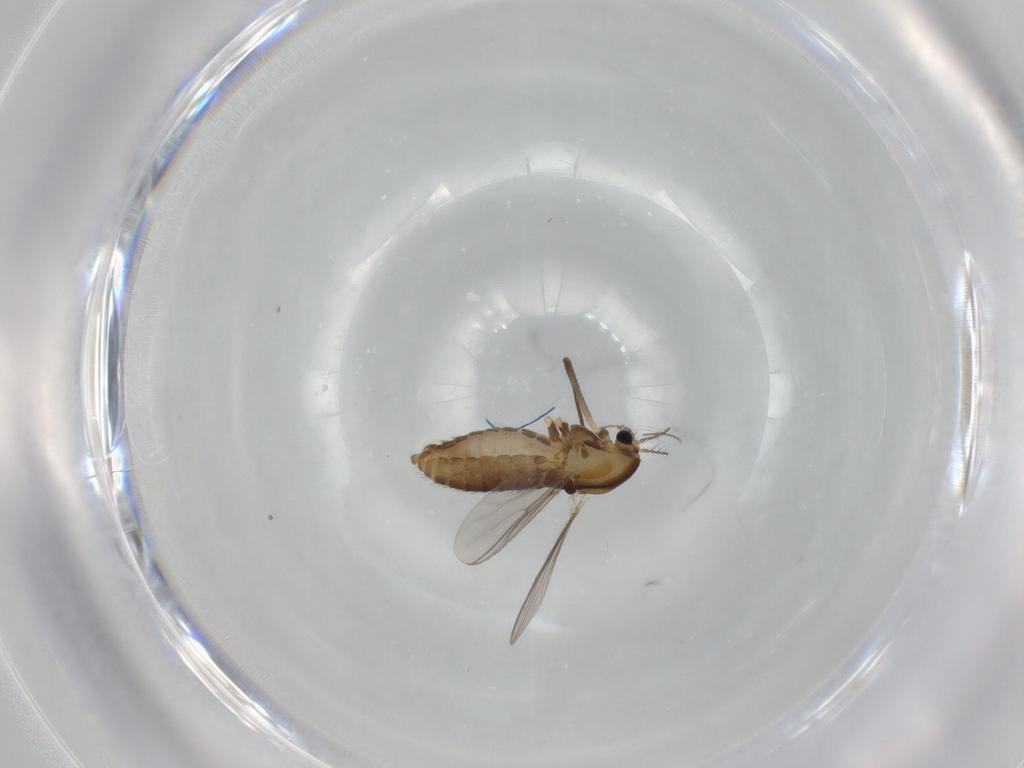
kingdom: Animalia
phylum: Arthropoda
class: Insecta
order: Diptera
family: Chironomidae
